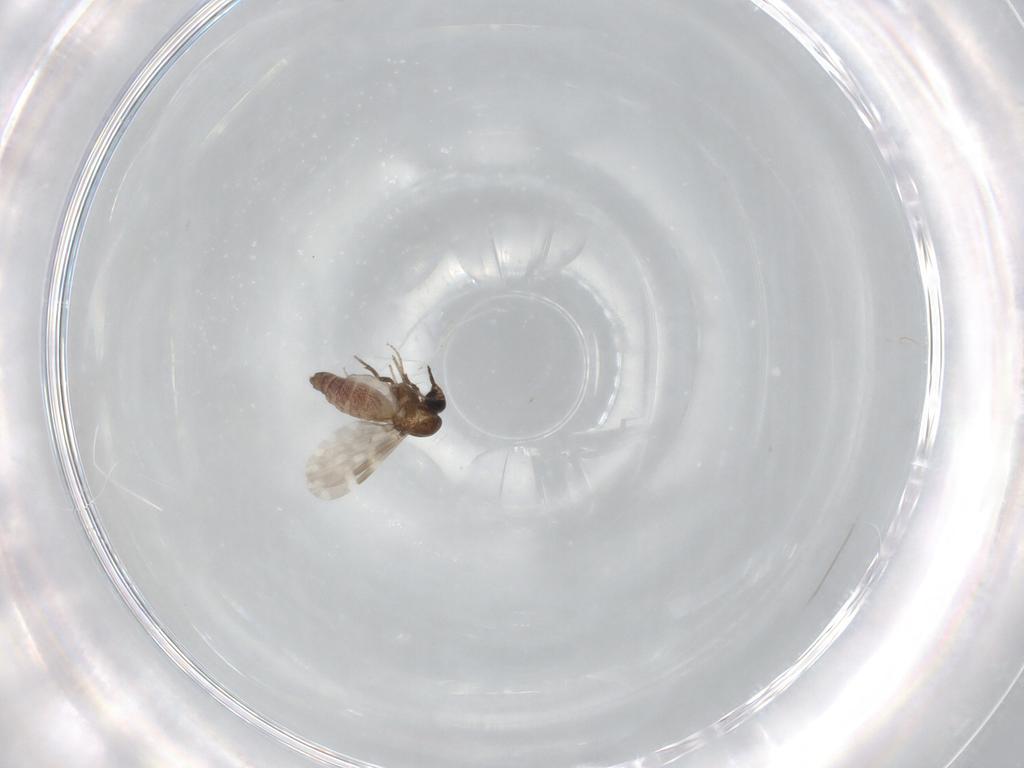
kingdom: Animalia
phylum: Arthropoda
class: Insecta
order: Diptera
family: Ceratopogonidae
